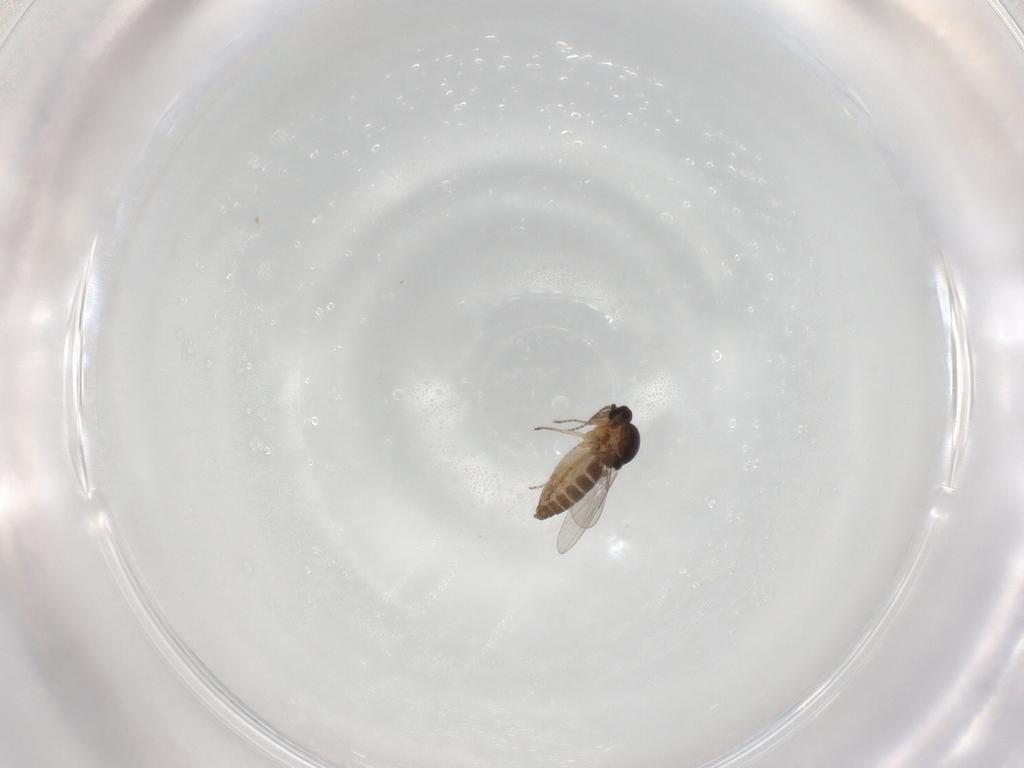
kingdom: Animalia
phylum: Arthropoda
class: Insecta
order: Diptera
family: Ceratopogonidae
